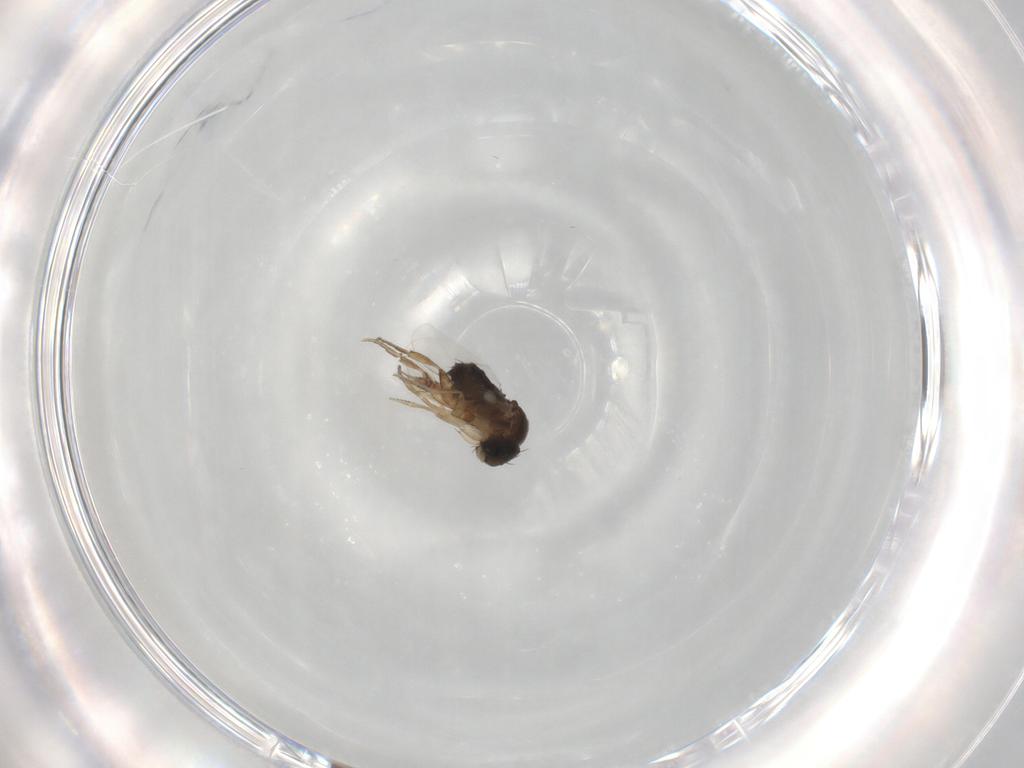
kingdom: Animalia
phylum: Arthropoda
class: Insecta
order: Diptera
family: Phoridae
